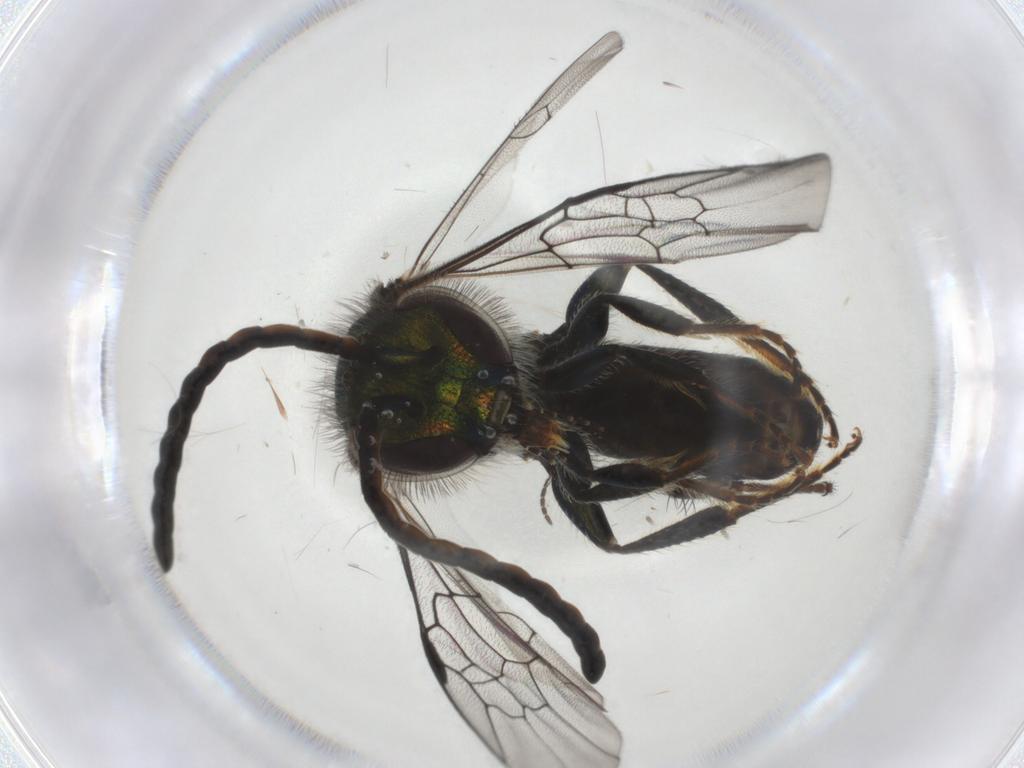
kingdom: Animalia
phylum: Arthropoda
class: Insecta
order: Hymenoptera
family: Halictidae
